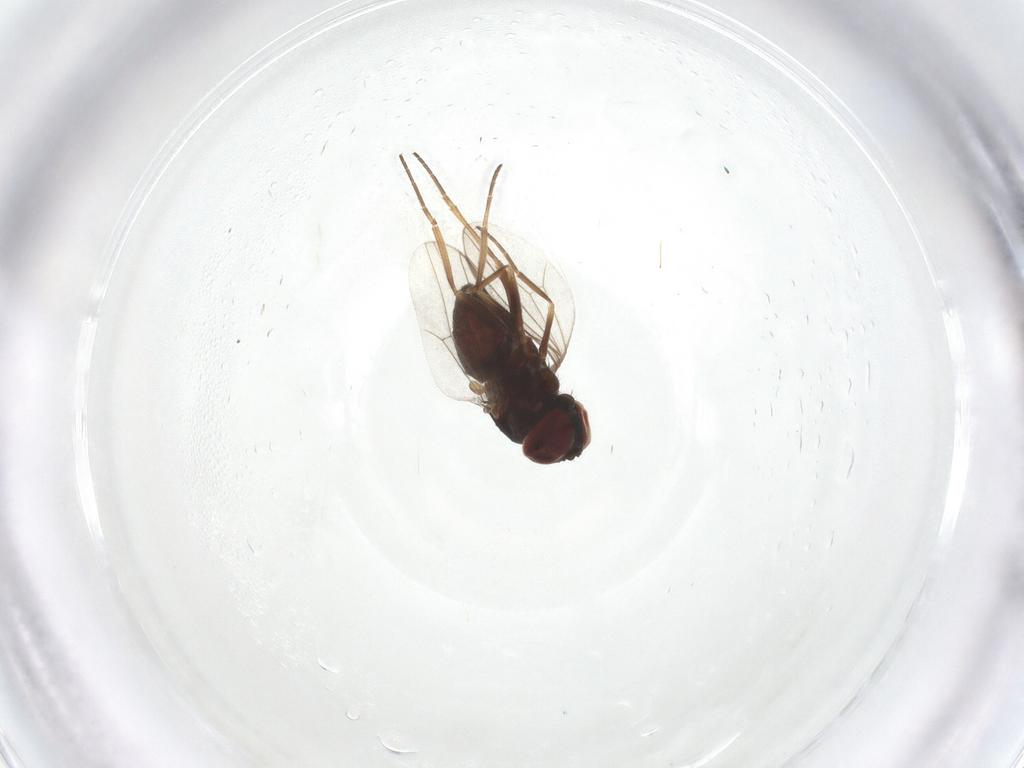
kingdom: Animalia
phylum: Arthropoda
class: Insecta
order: Diptera
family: Dolichopodidae
